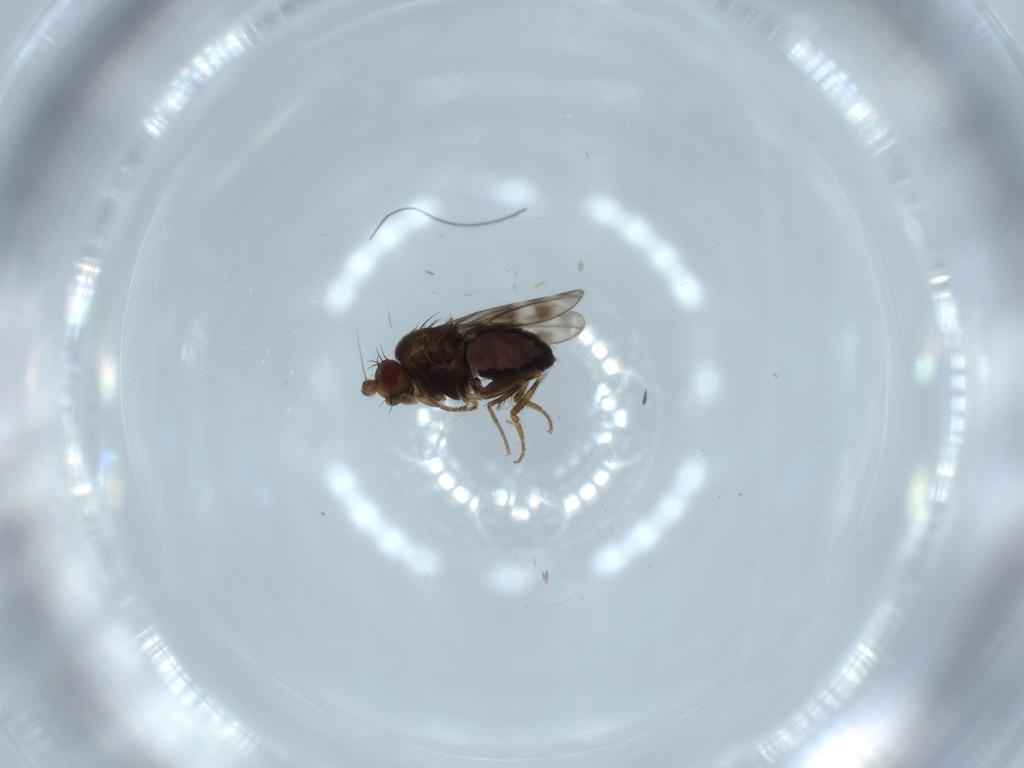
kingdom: Animalia
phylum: Arthropoda
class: Insecta
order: Diptera
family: Sphaeroceridae
